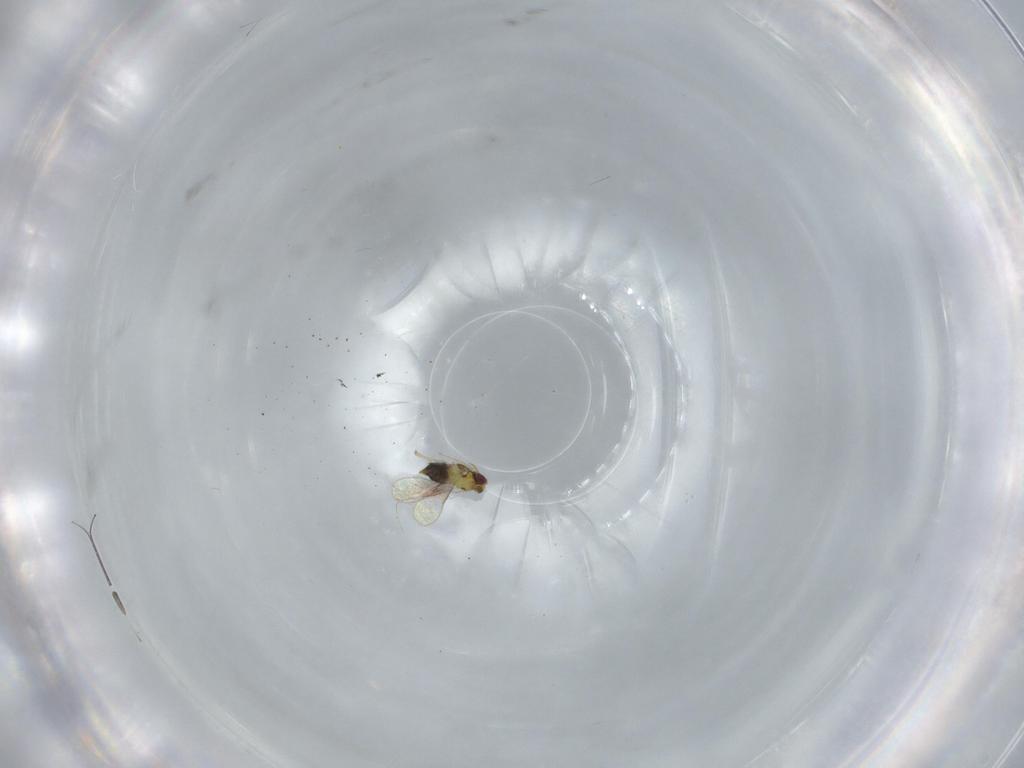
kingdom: Animalia
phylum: Arthropoda
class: Insecta
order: Hymenoptera
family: Aphelinidae
